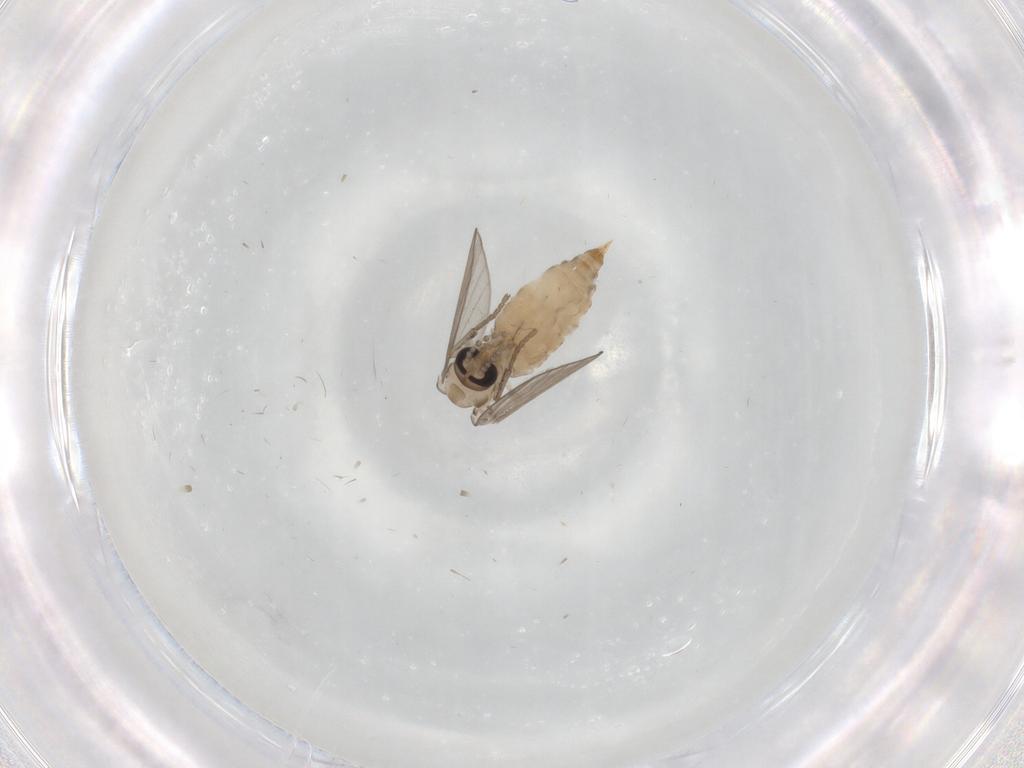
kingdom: Animalia
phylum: Arthropoda
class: Insecta
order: Diptera
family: Psychodidae
